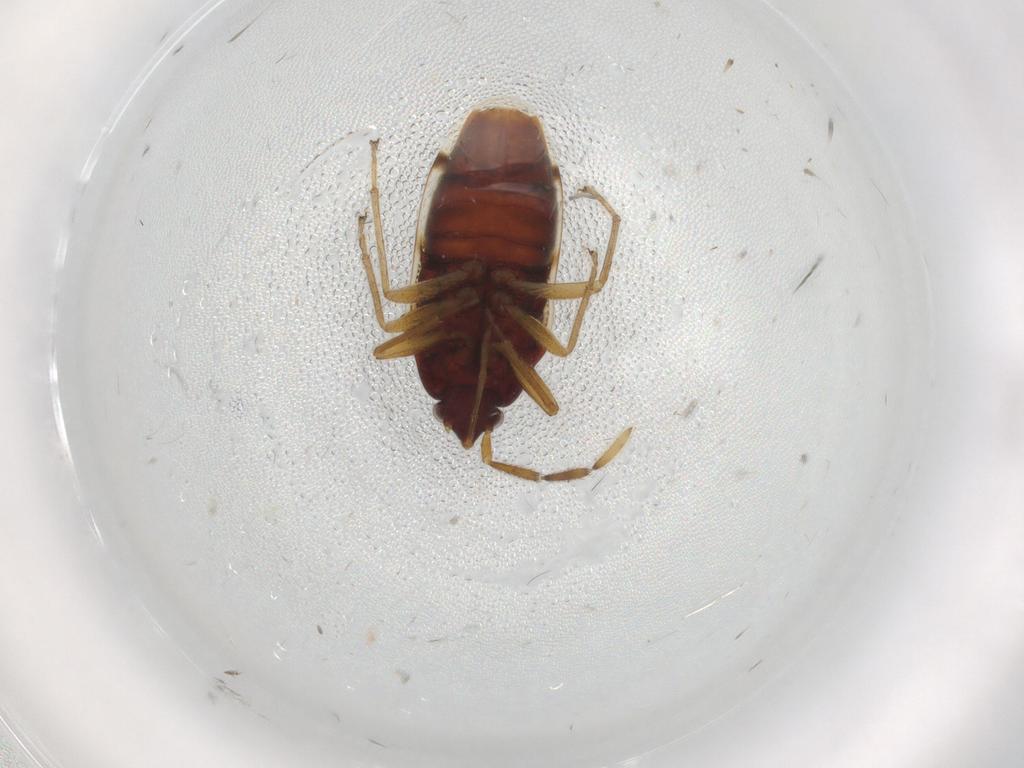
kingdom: Animalia
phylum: Arthropoda
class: Insecta
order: Hemiptera
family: Rhyparochromidae
